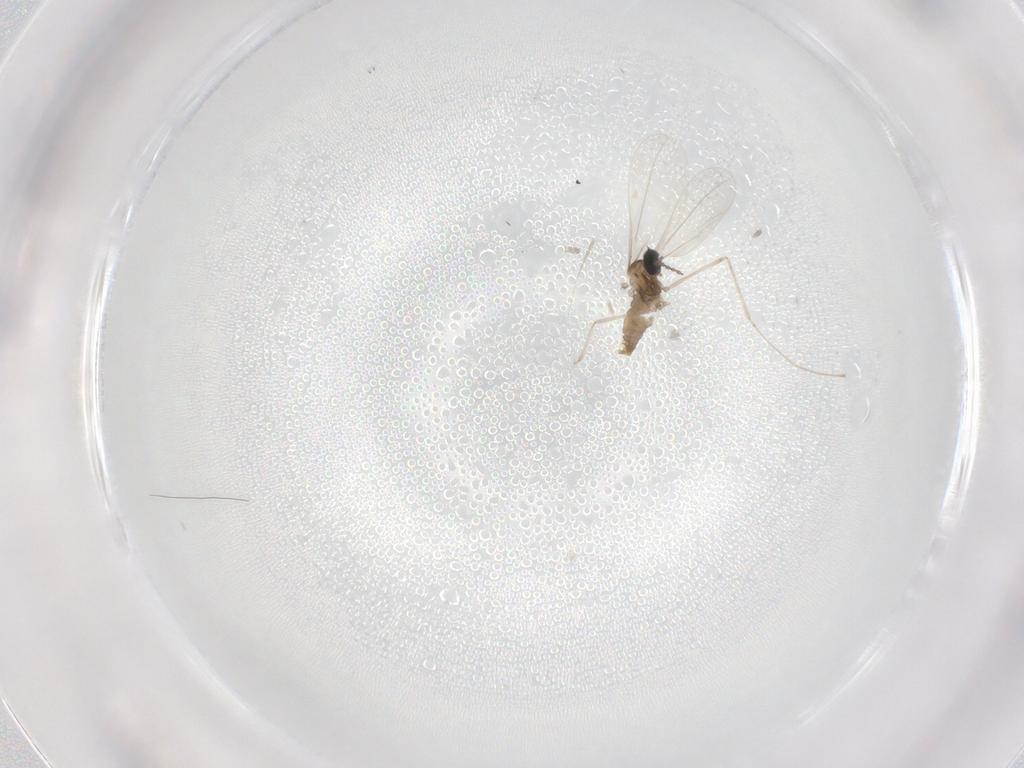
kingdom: Animalia
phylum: Arthropoda
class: Insecta
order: Diptera
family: Cecidomyiidae
